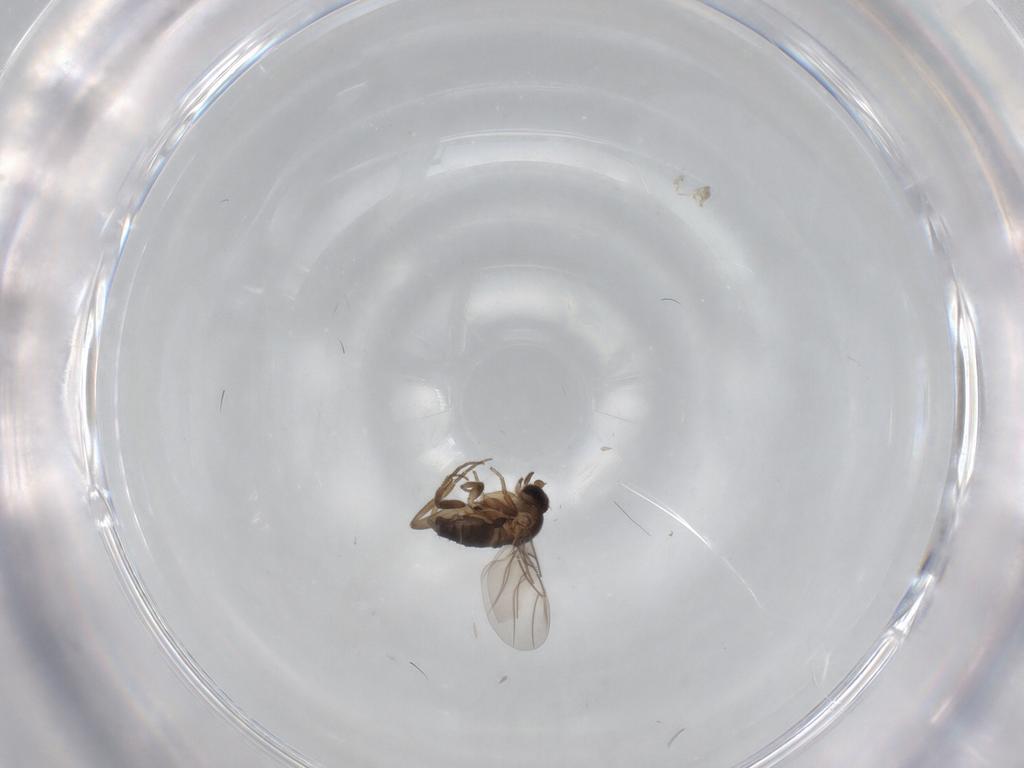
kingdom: Animalia
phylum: Arthropoda
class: Insecta
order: Diptera
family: Phoridae
